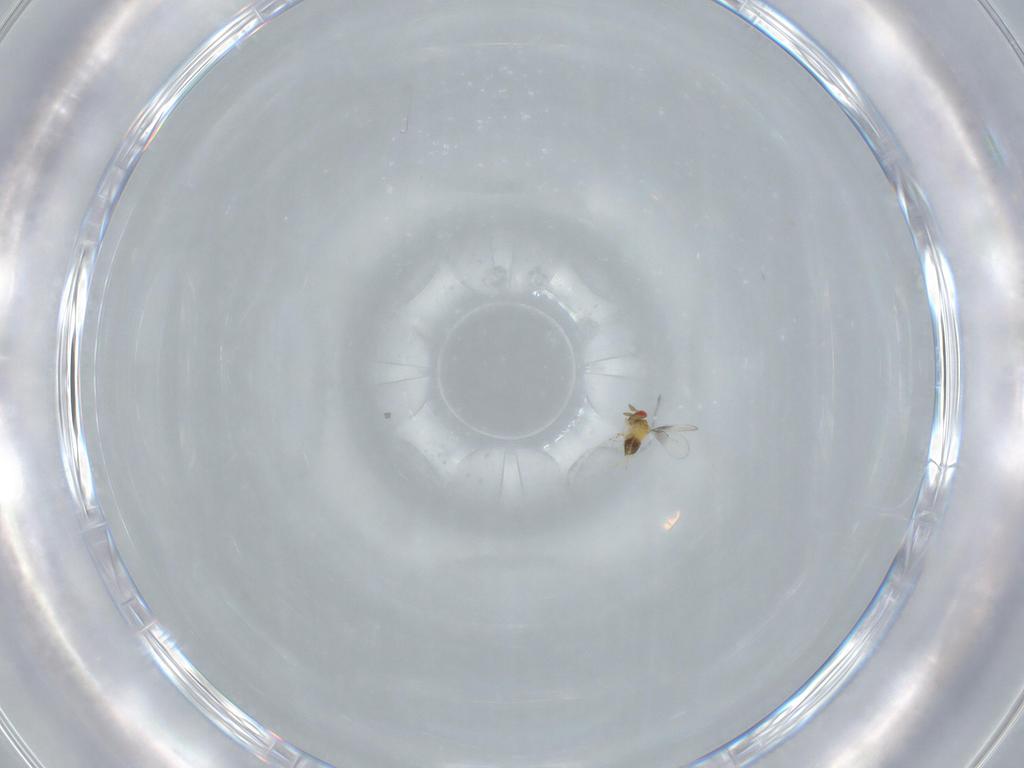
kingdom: Animalia
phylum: Arthropoda
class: Insecta
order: Hymenoptera
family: Trichogrammatidae
